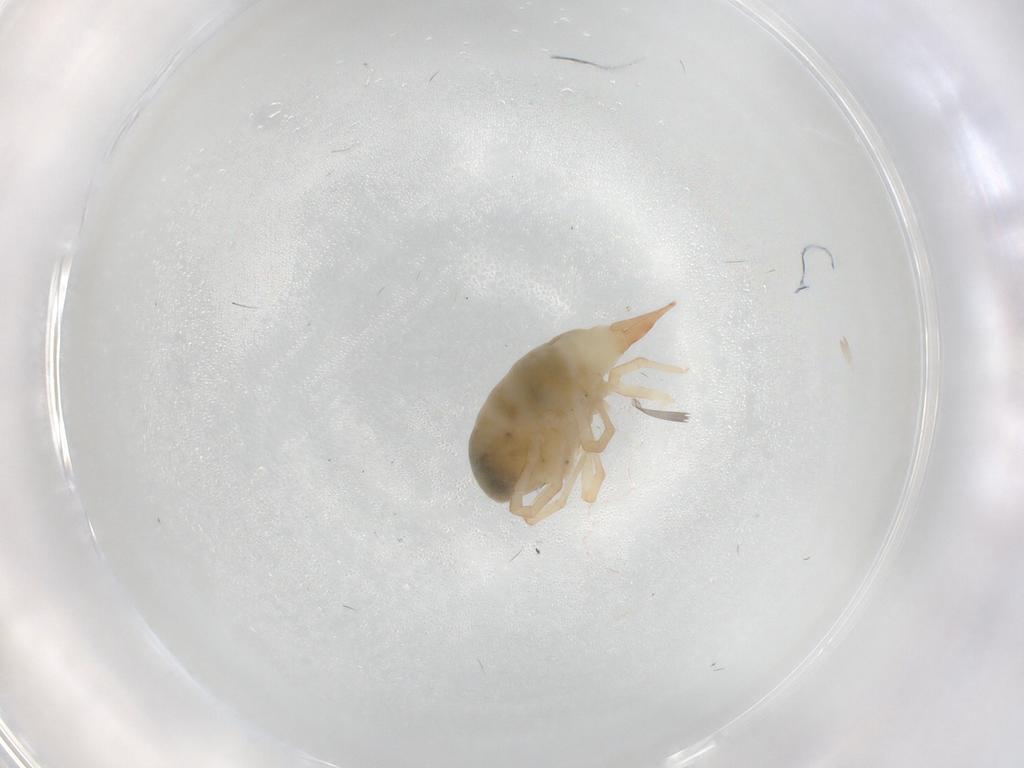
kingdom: Animalia
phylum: Arthropoda
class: Arachnida
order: Trombidiformes
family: Bdellidae
